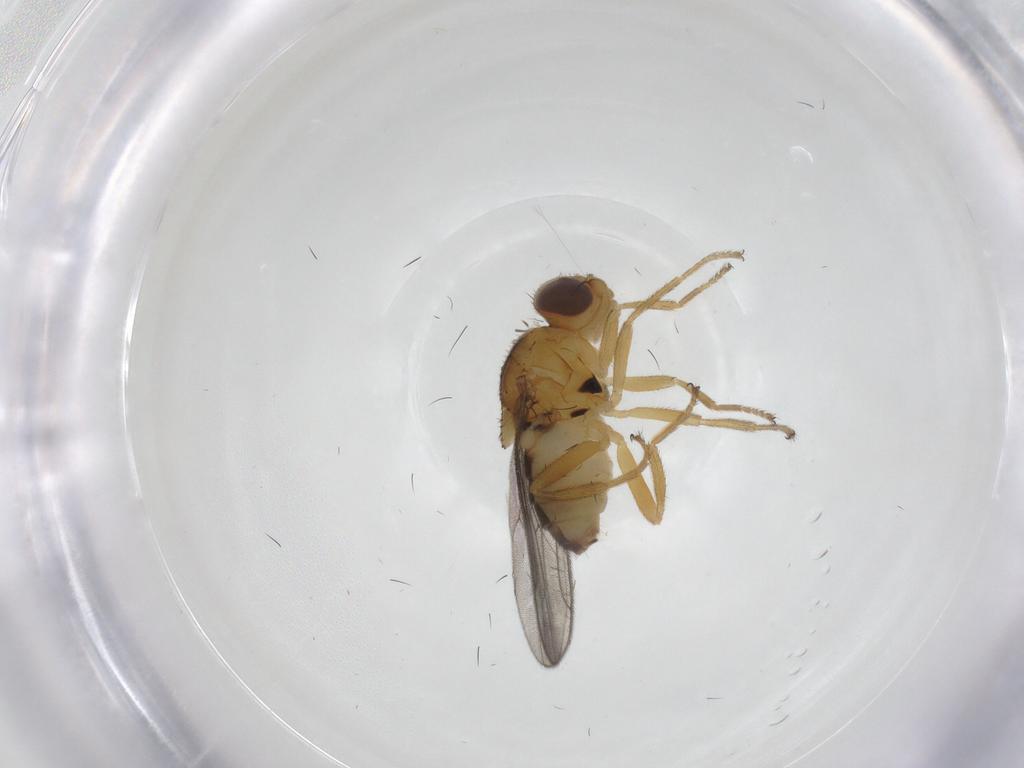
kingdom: Animalia
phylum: Arthropoda
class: Insecta
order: Diptera
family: Chloropidae
